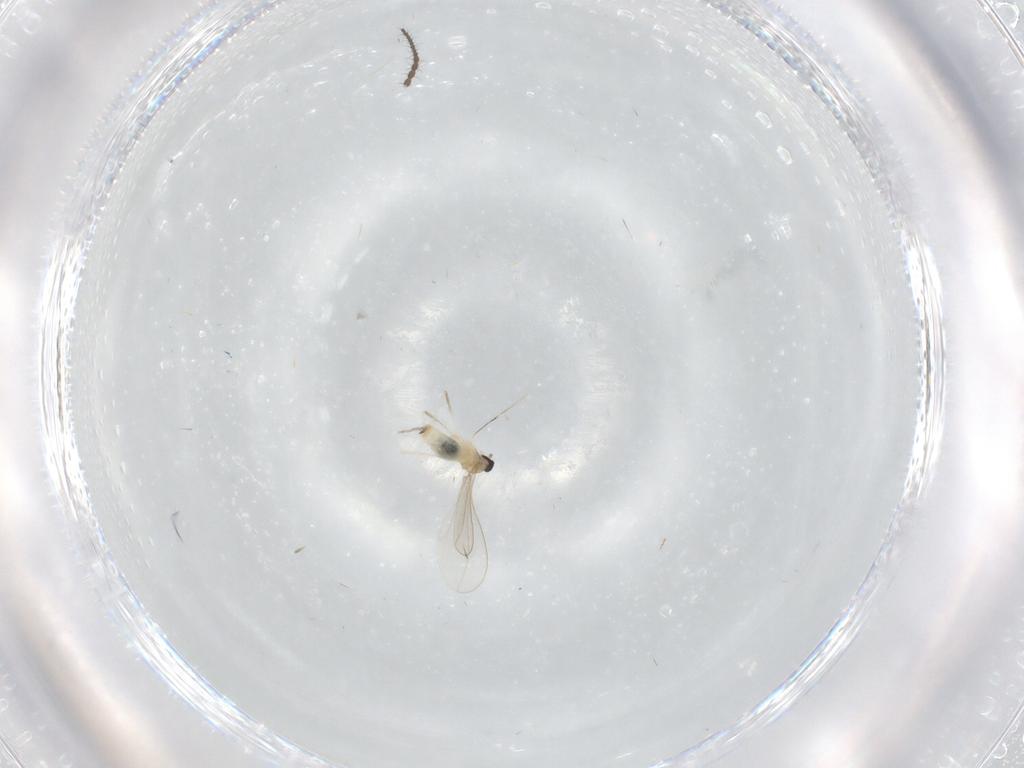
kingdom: Animalia
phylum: Arthropoda
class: Insecta
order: Diptera
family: Limoniidae
